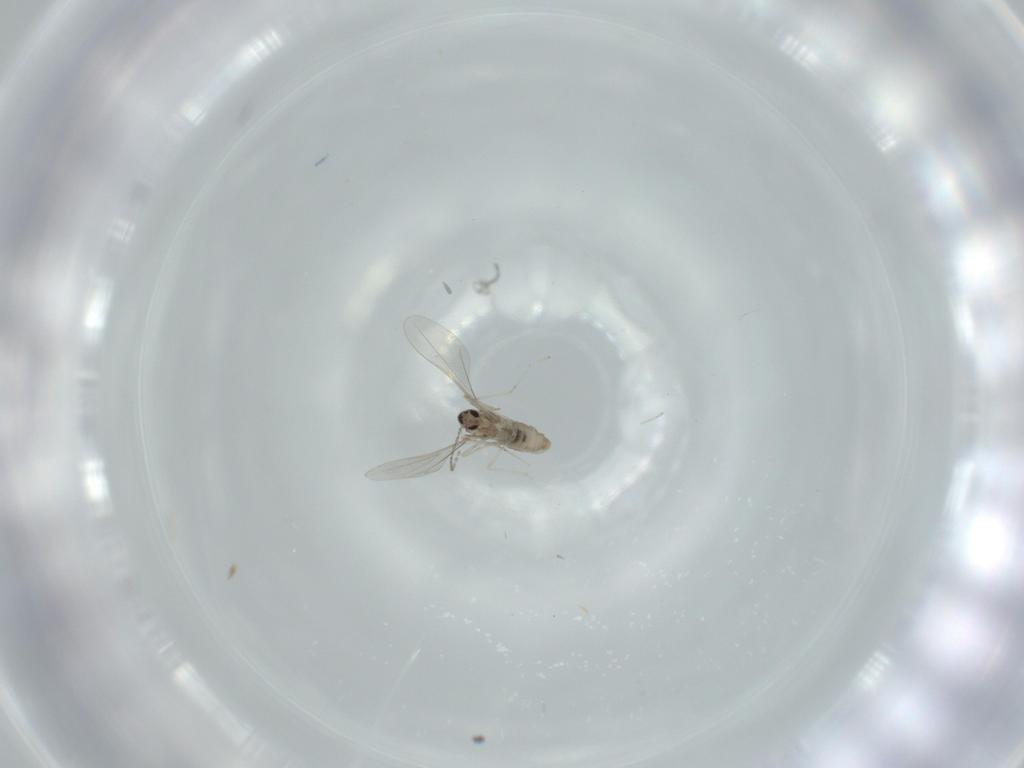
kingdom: Animalia
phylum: Arthropoda
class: Insecta
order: Diptera
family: Cecidomyiidae
